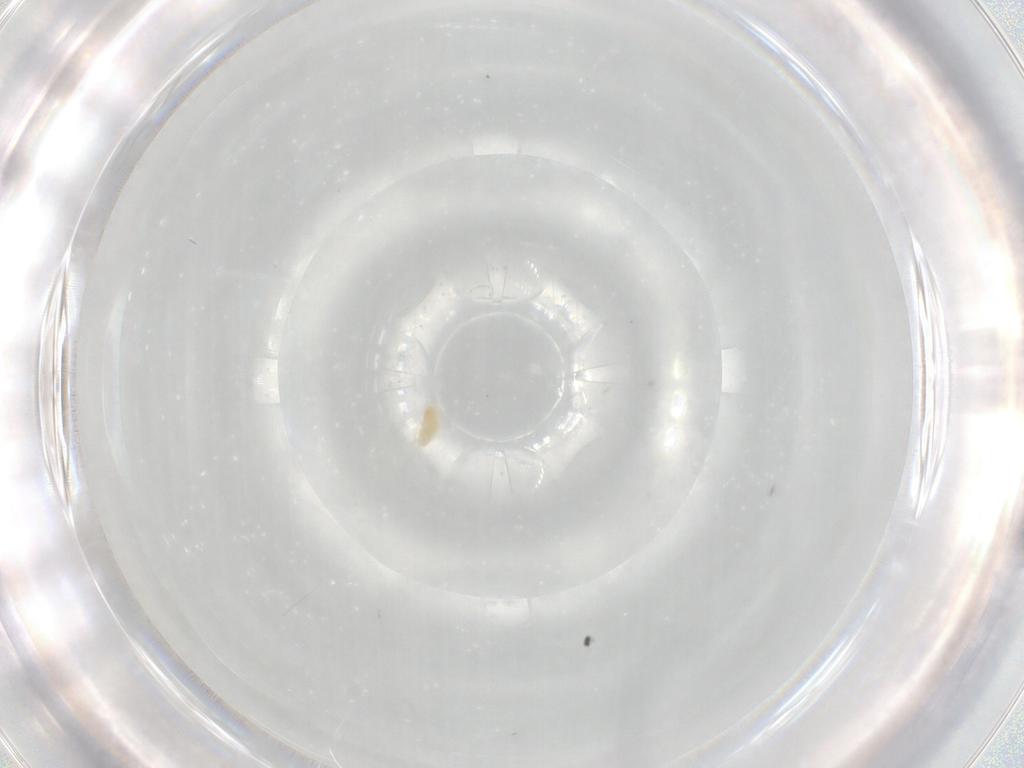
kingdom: Animalia
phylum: Arthropoda
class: Arachnida
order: Trombidiformes
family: Eupodidae
